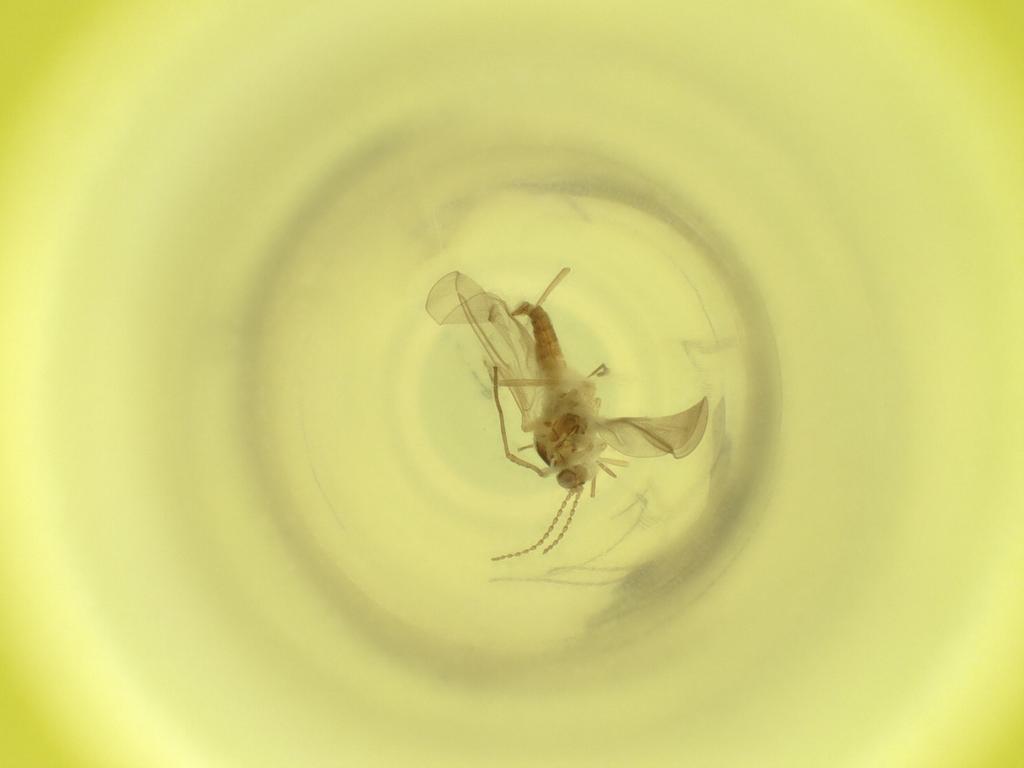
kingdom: Animalia
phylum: Arthropoda
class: Insecta
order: Diptera
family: Cecidomyiidae
